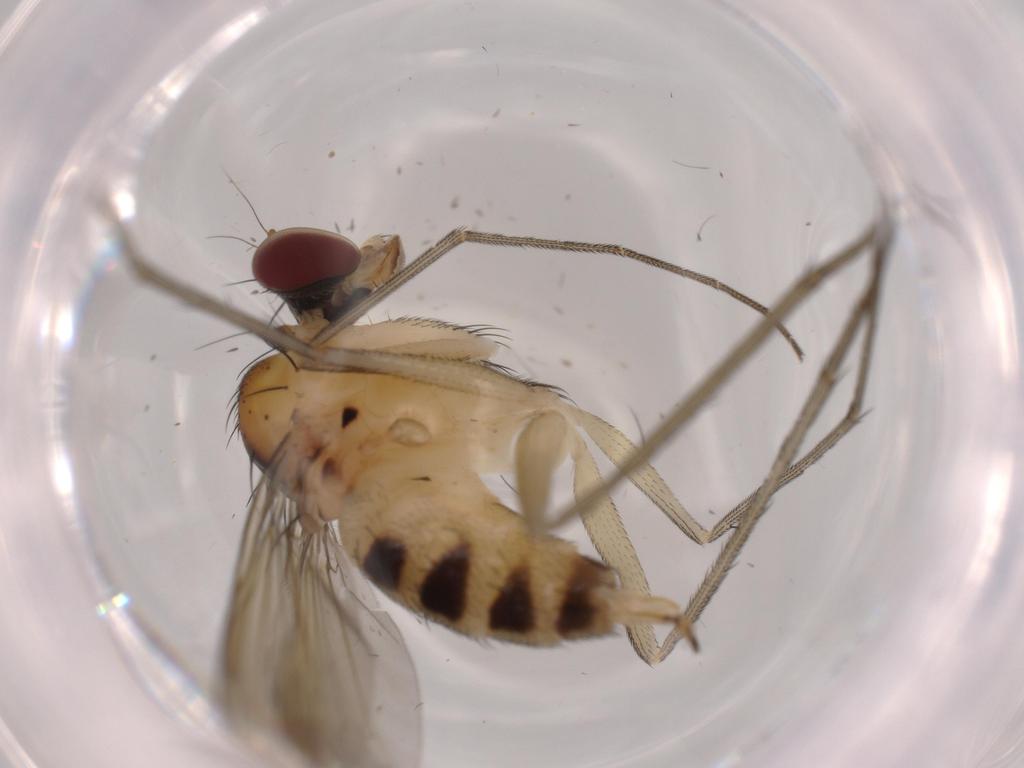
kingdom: Animalia
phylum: Arthropoda
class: Insecta
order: Diptera
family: Dolichopodidae
